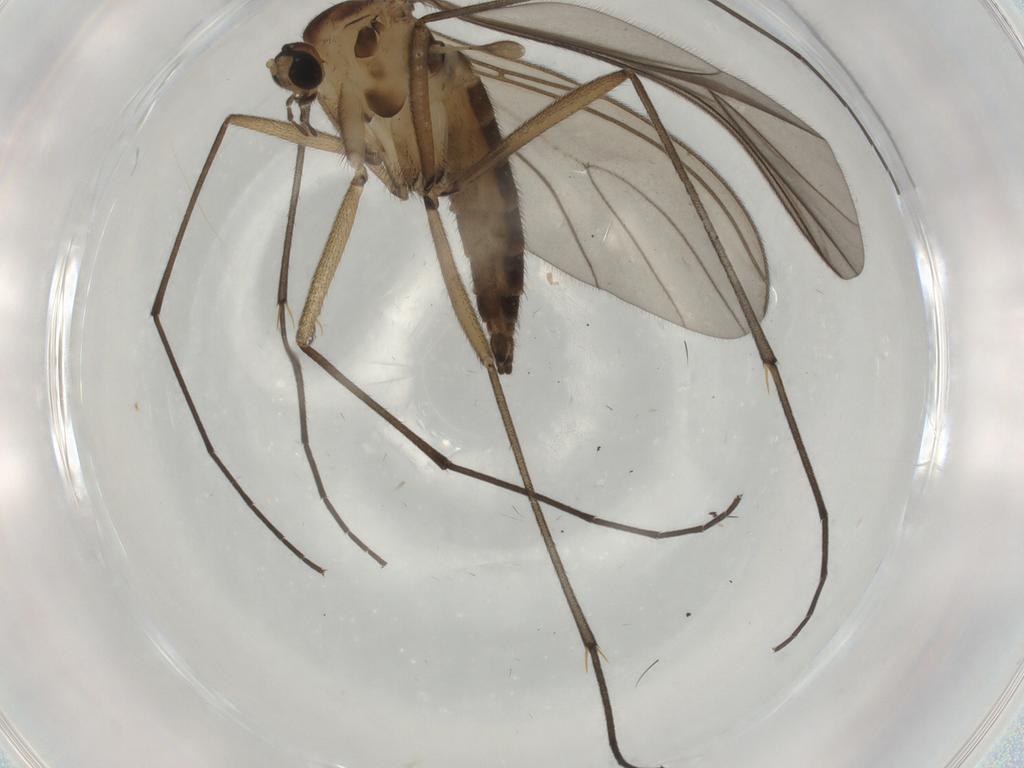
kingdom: Animalia
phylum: Arthropoda
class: Insecta
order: Diptera
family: Sciaridae
